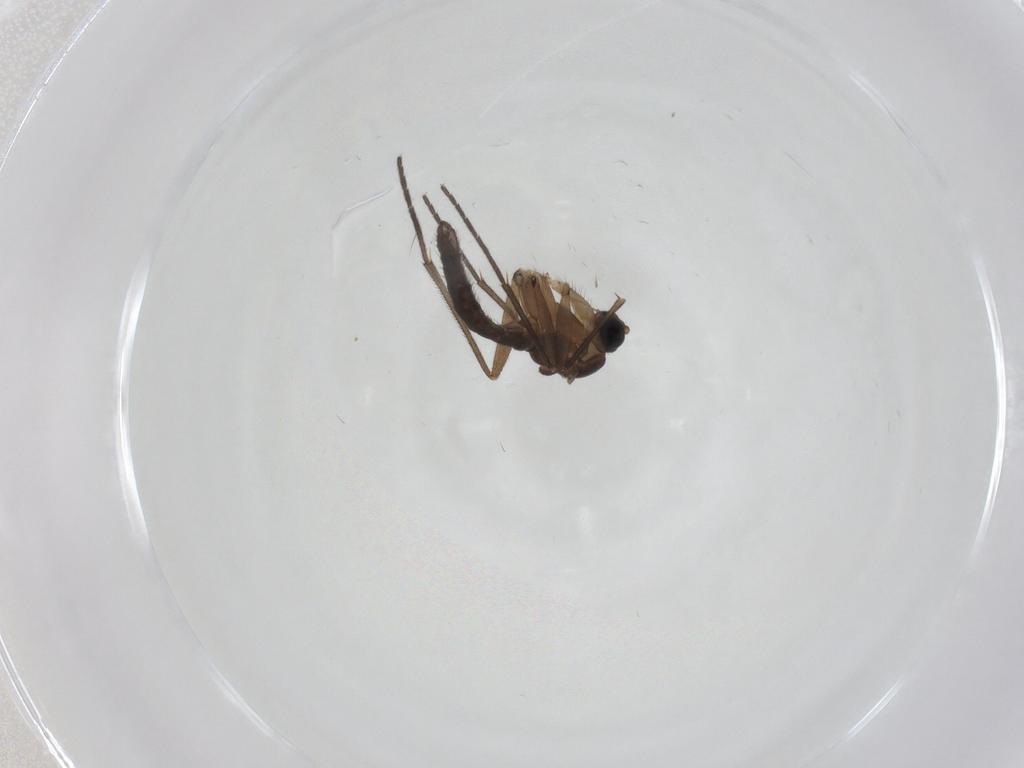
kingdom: Animalia
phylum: Arthropoda
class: Insecta
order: Diptera
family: Sciaridae
